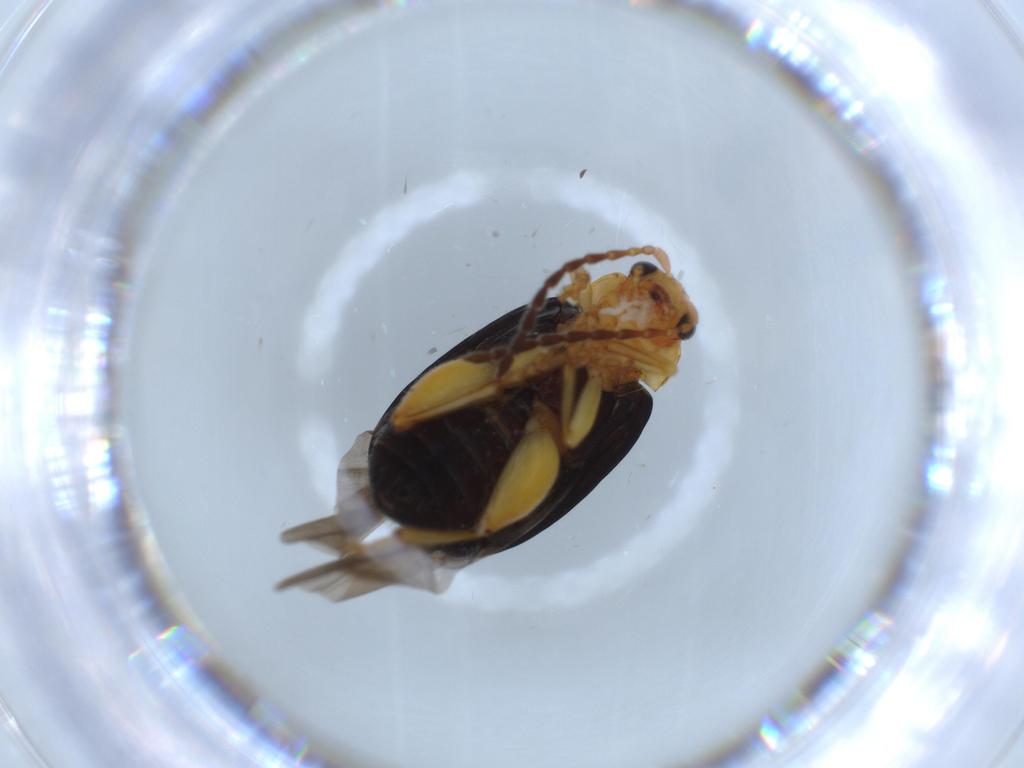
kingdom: Animalia
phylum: Arthropoda
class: Insecta
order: Coleoptera
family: Chrysomelidae
